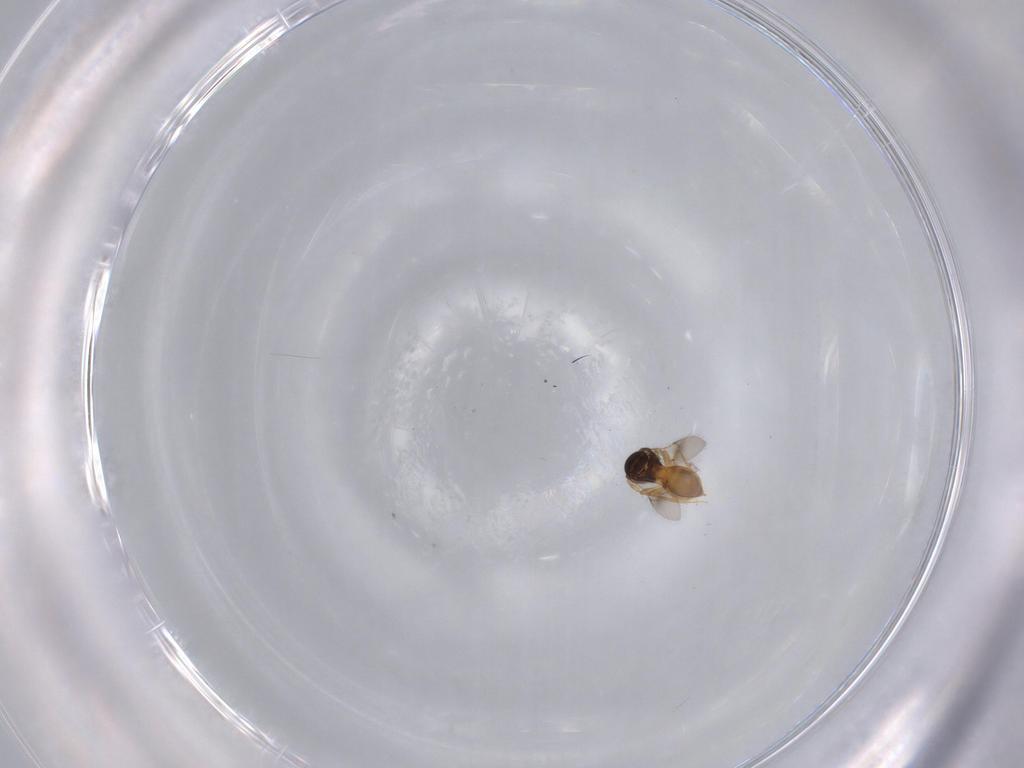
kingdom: Animalia
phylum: Arthropoda
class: Insecta
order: Hymenoptera
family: Scelionidae
